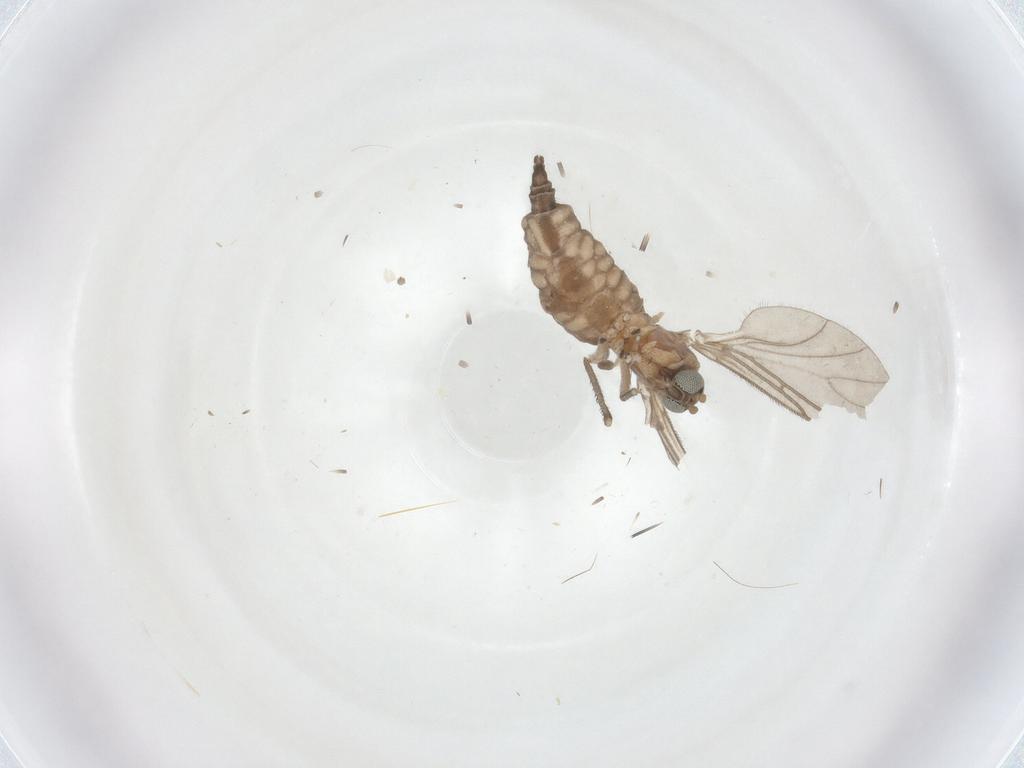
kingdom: Animalia
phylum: Arthropoda
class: Insecta
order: Diptera
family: Sciaridae
